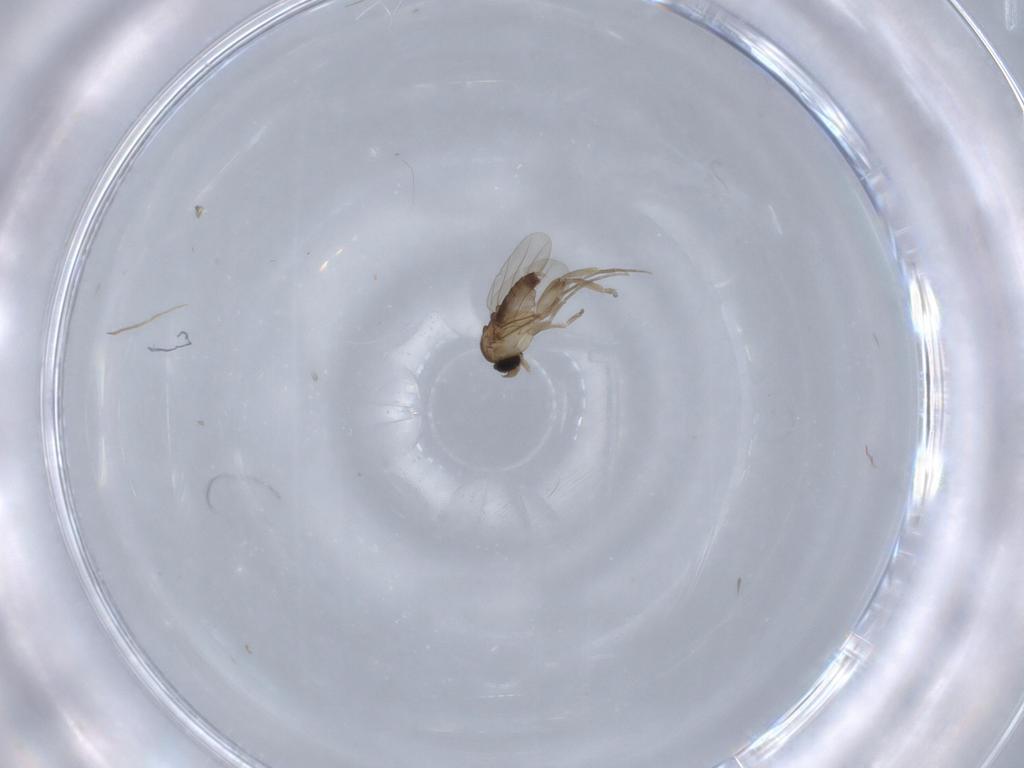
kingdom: Animalia
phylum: Arthropoda
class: Insecta
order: Diptera
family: Phoridae
